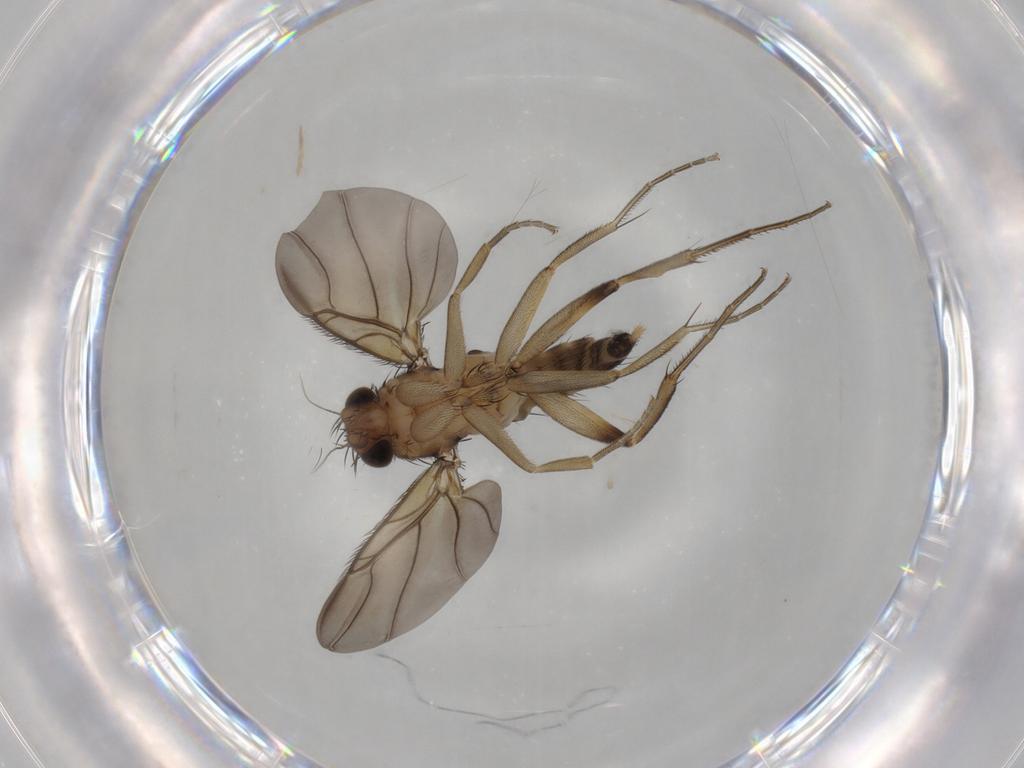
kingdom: Animalia
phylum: Arthropoda
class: Insecta
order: Diptera
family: Phoridae
